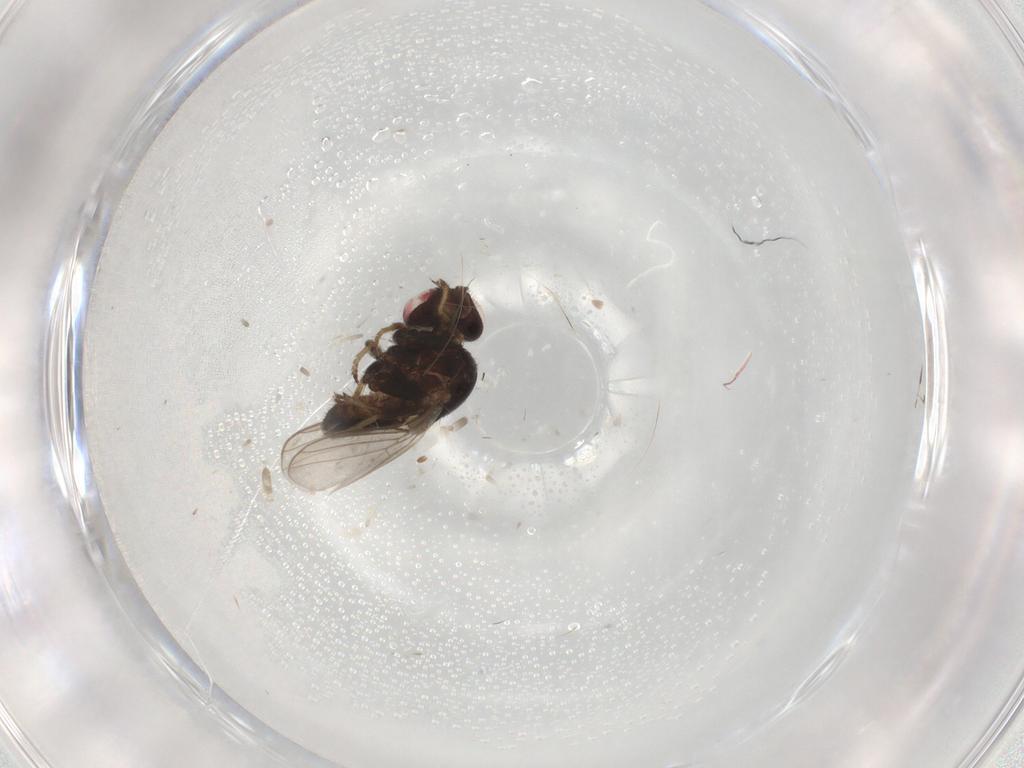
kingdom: Animalia
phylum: Arthropoda
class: Insecta
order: Diptera
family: Chloropidae
